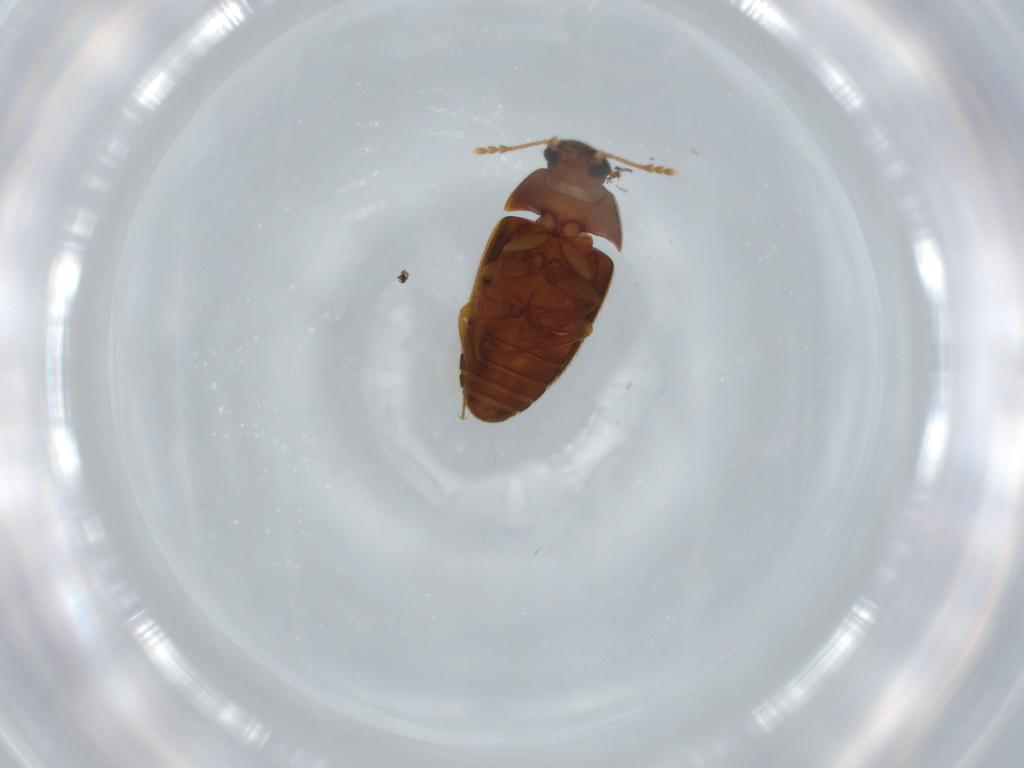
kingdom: Animalia
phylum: Arthropoda
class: Insecta
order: Coleoptera
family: Mycetophagidae
